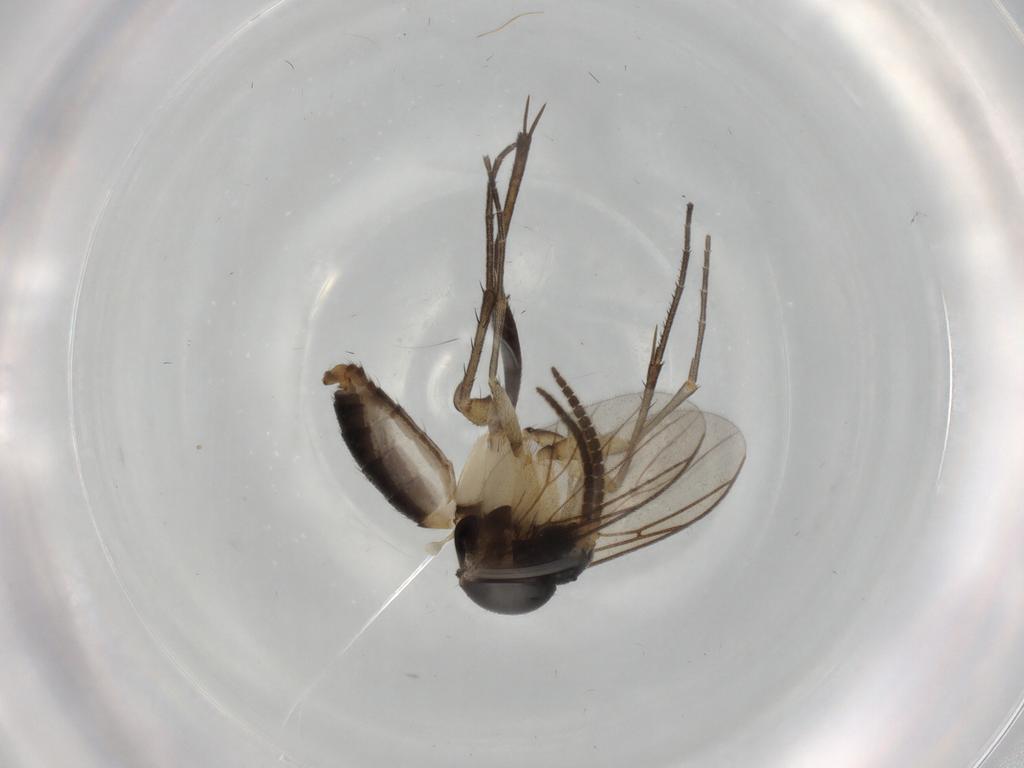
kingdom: Animalia
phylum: Arthropoda
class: Insecta
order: Diptera
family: Mycetophilidae
